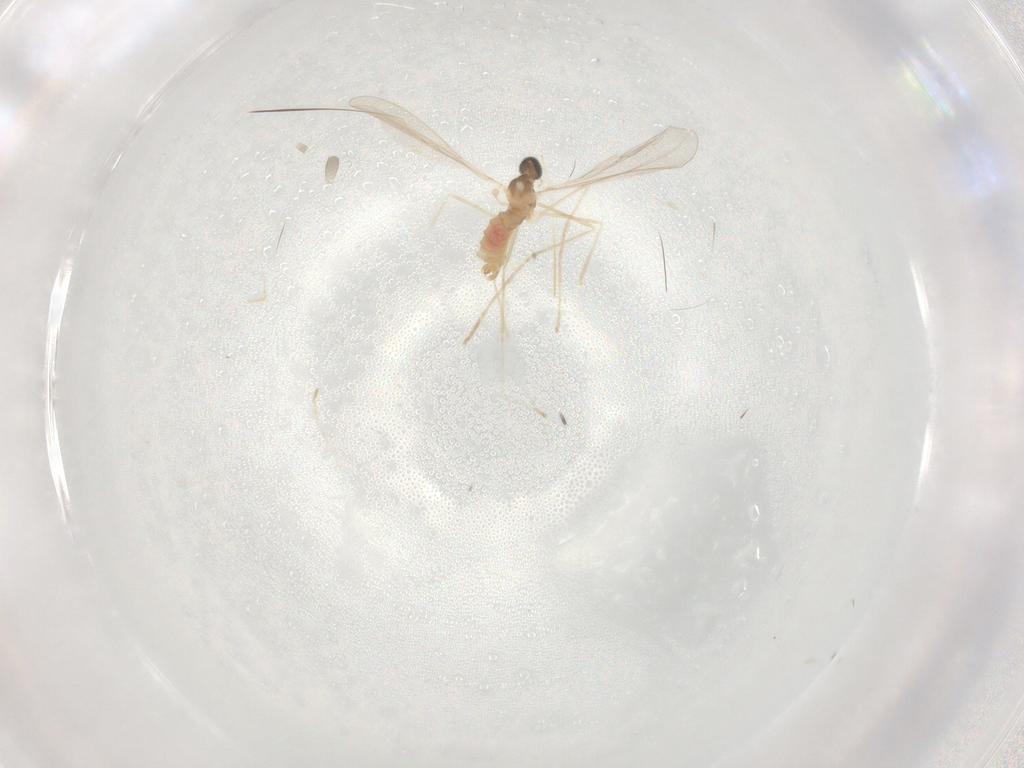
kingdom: Animalia
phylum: Arthropoda
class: Insecta
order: Diptera
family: Cecidomyiidae
